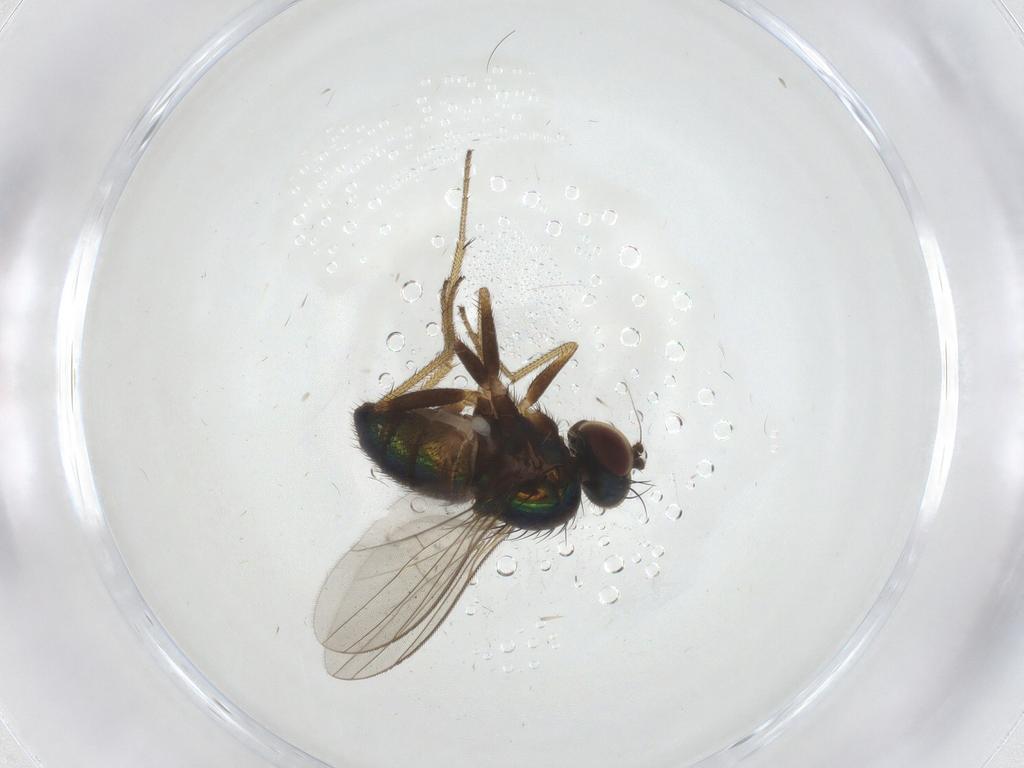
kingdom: Animalia
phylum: Arthropoda
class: Insecta
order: Diptera
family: Dolichopodidae
